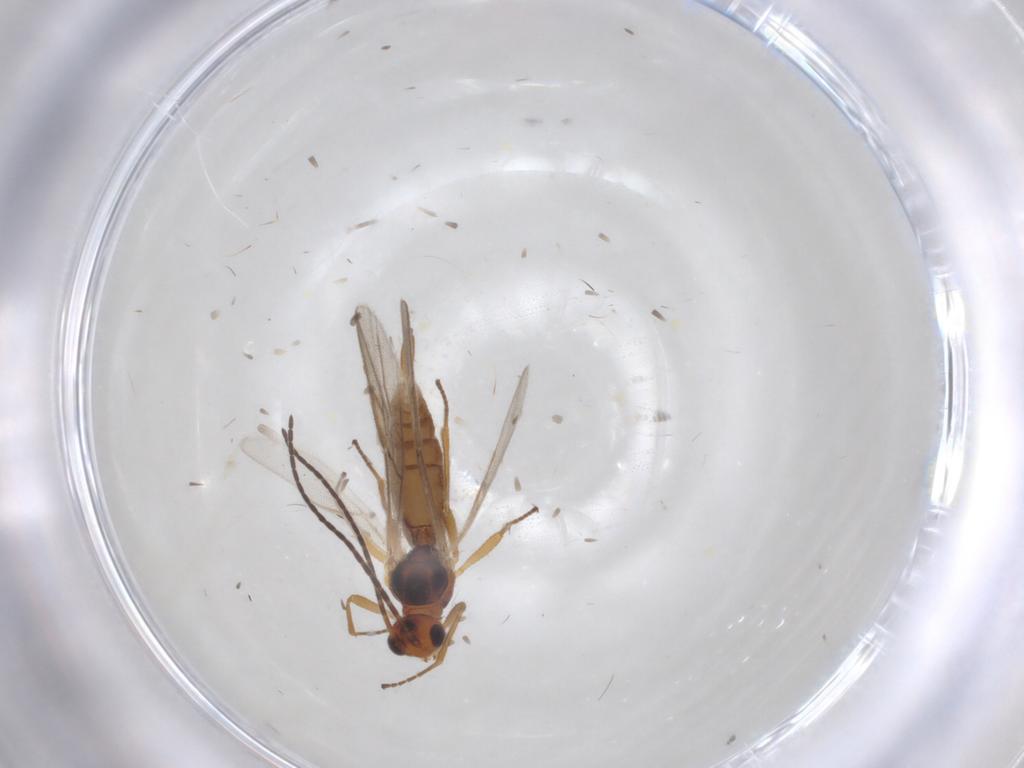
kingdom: Animalia
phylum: Arthropoda
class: Insecta
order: Hymenoptera
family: Braconidae
